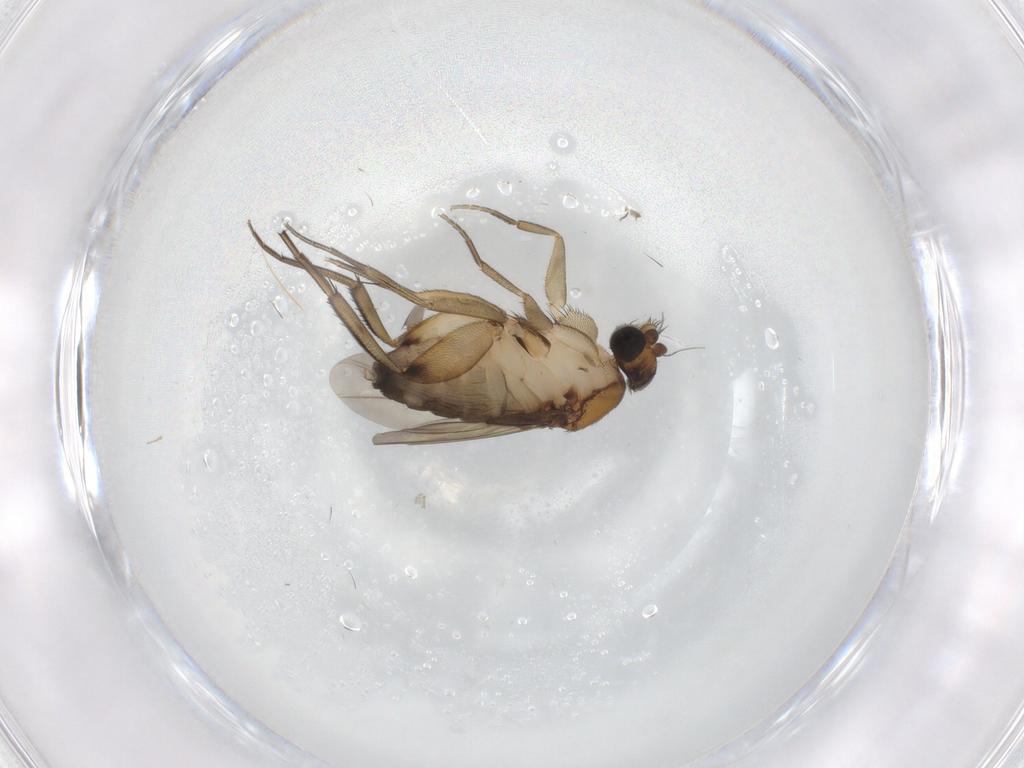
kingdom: Animalia
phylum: Arthropoda
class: Insecta
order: Diptera
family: Phoridae
